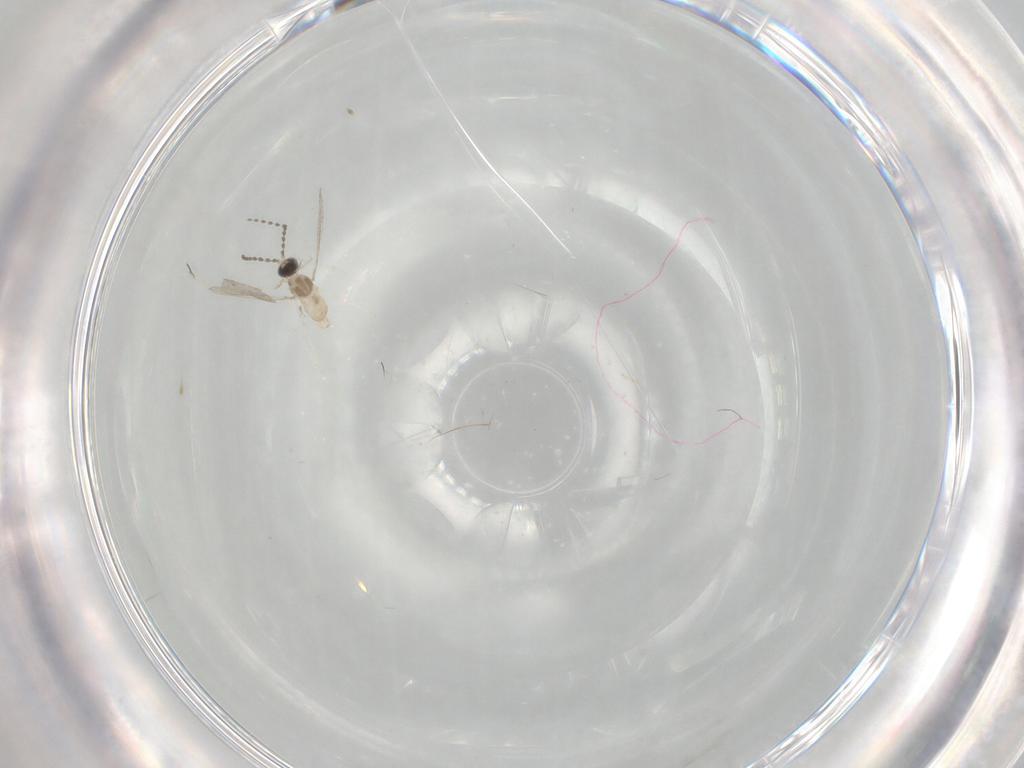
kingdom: Animalia
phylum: Arthropoda
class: Insecta
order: Diptera
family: Cecidomyiidae
